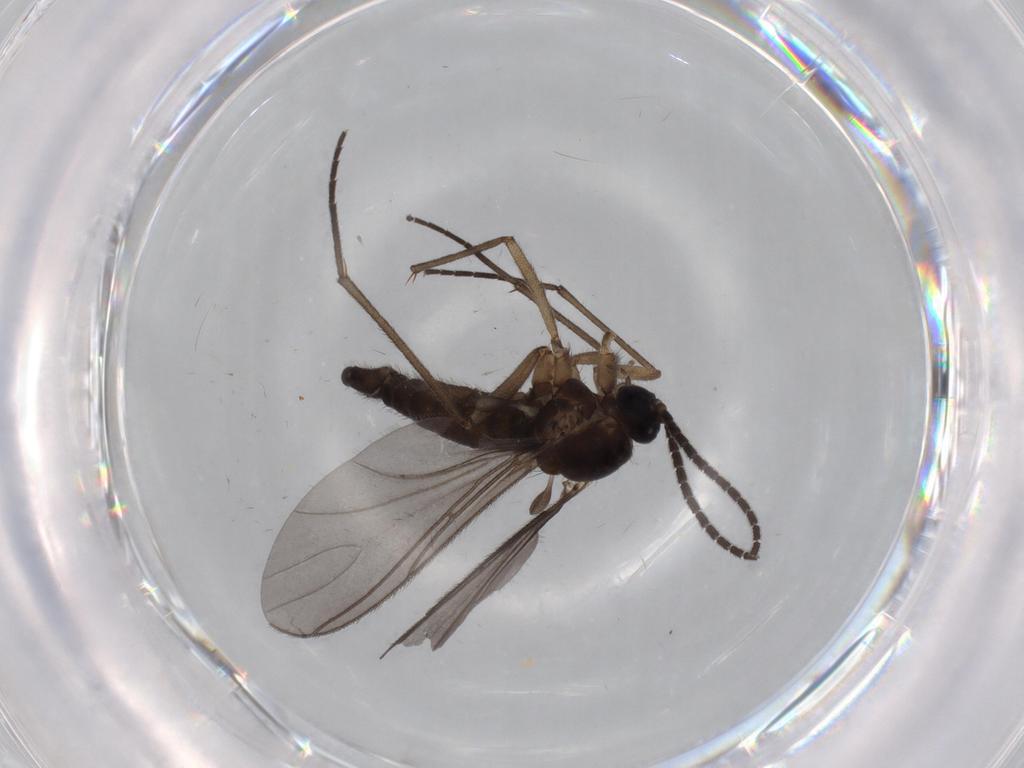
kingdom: Animalia
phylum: Arthropoda
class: Insecta
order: Diptera
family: Sciaridae
